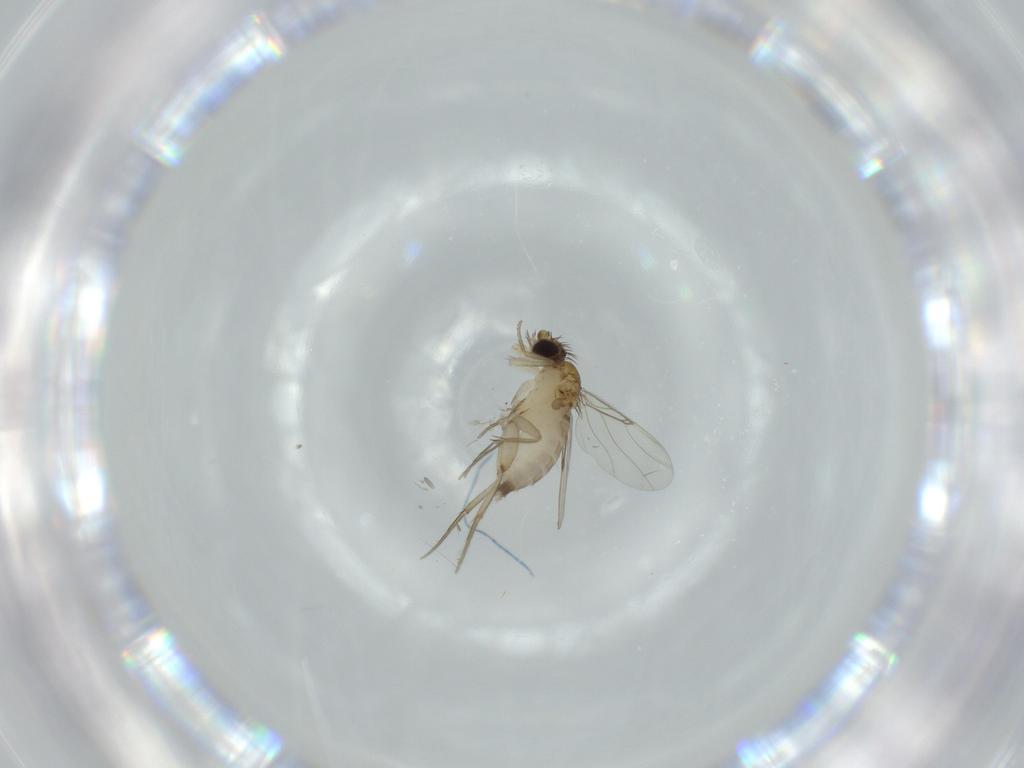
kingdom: Animalia
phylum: Arthropoda
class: Insecta
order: Diptera
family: Phoridae
